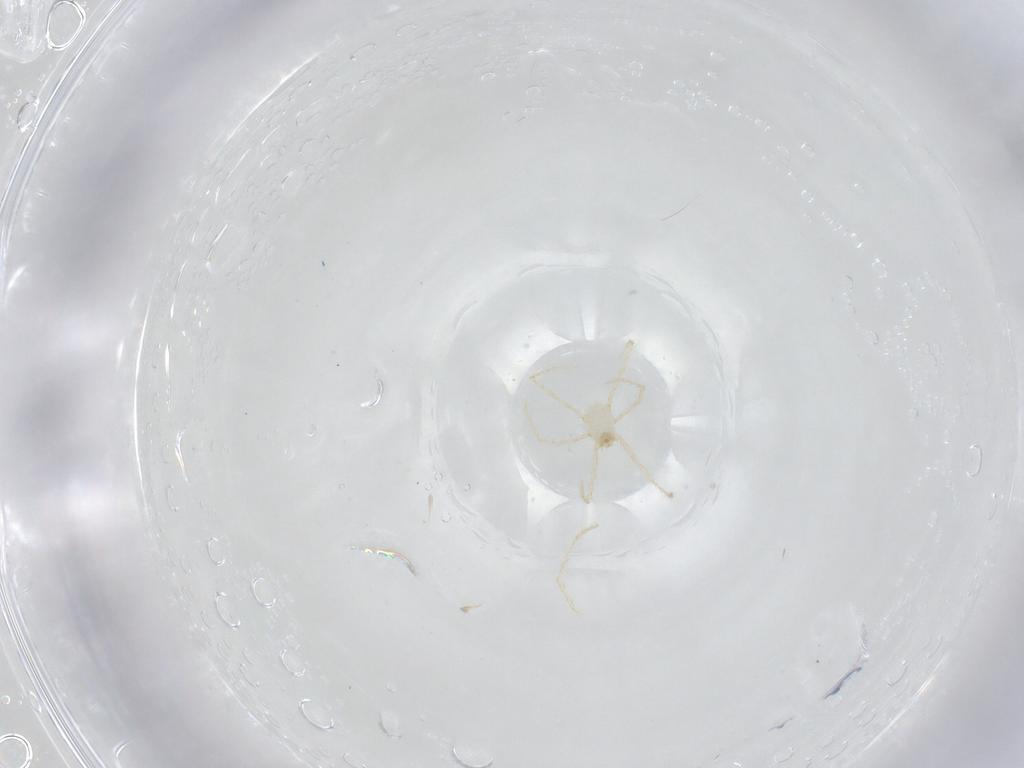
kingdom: Animalia
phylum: Arthropoda
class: Arachnida
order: Trombidiformes
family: Erythraeidae
